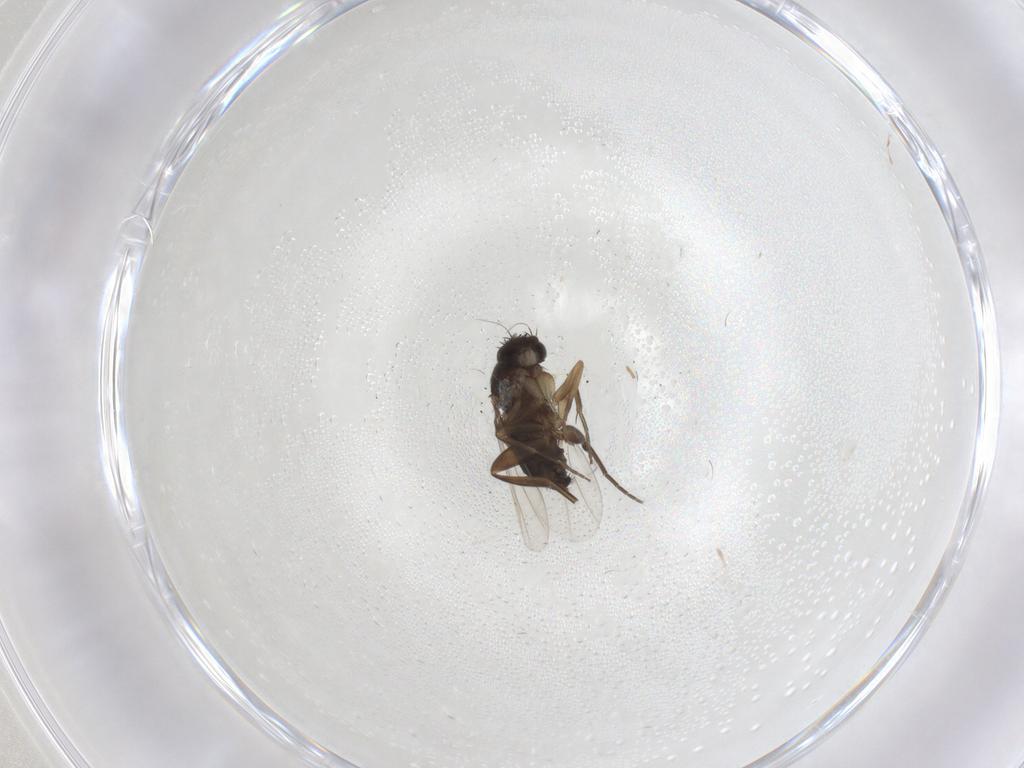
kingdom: Animalia
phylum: Arthropoda
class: Insecta
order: Diptera
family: Phoridae
